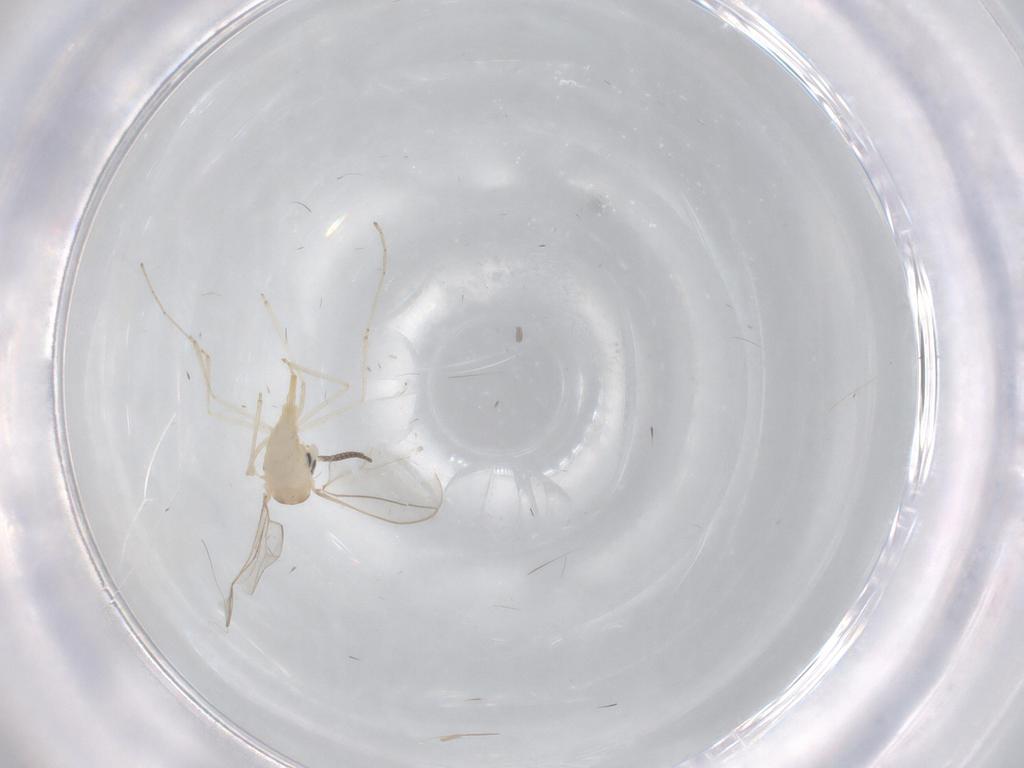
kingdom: Animalia
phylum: Arthropoda
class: Insecta
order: Diptera
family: Cecidomyiidae
